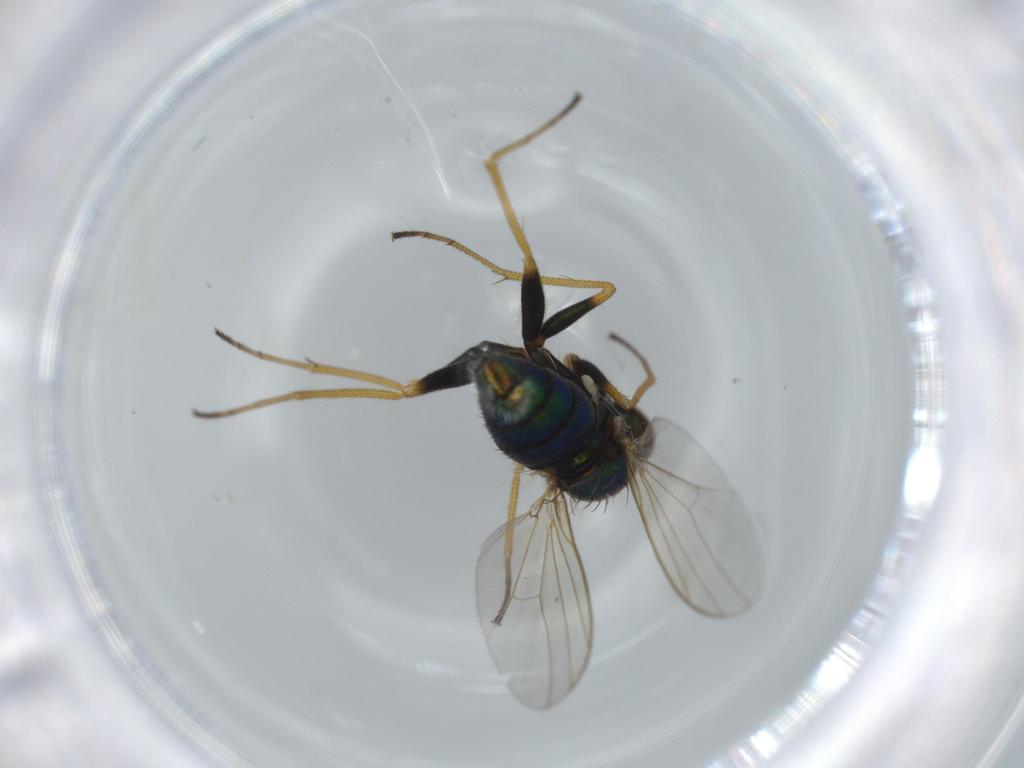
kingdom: Animalia
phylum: Arthropoda
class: Insecta
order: Diptera
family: Dolichopodidae
